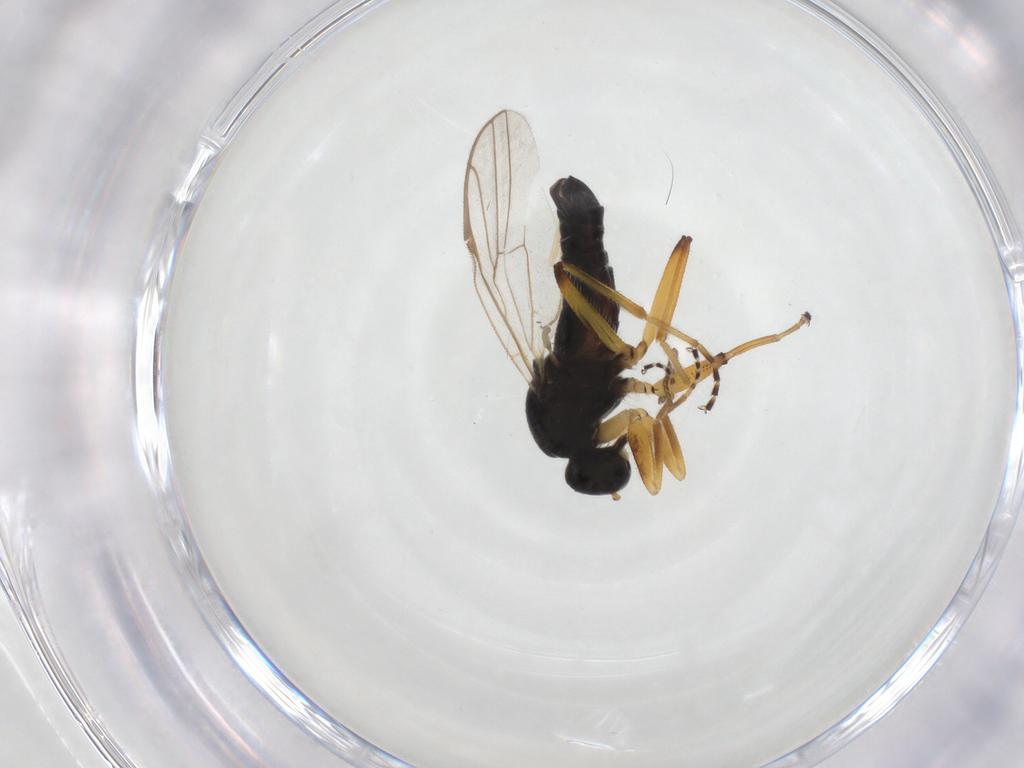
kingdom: Animalia
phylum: Arthropoda
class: Insecta
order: Diptera
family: Hybotidae
